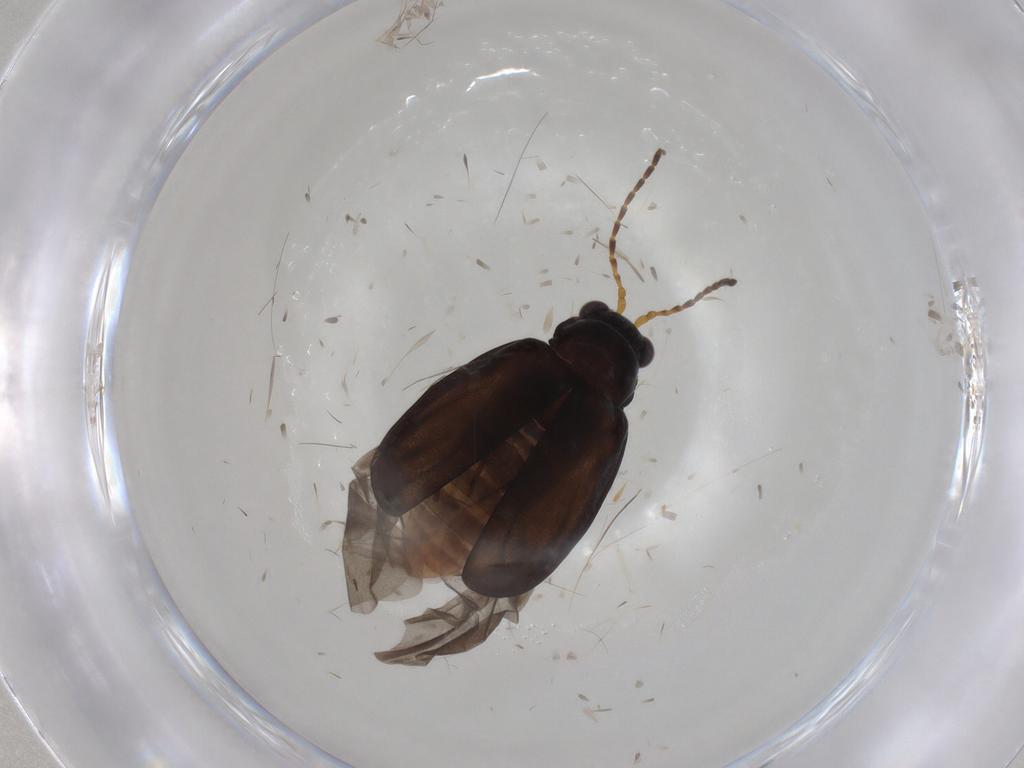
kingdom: Animalia
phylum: Arthropoda
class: Insecta
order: Coleoptera
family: Chrysomelidae
